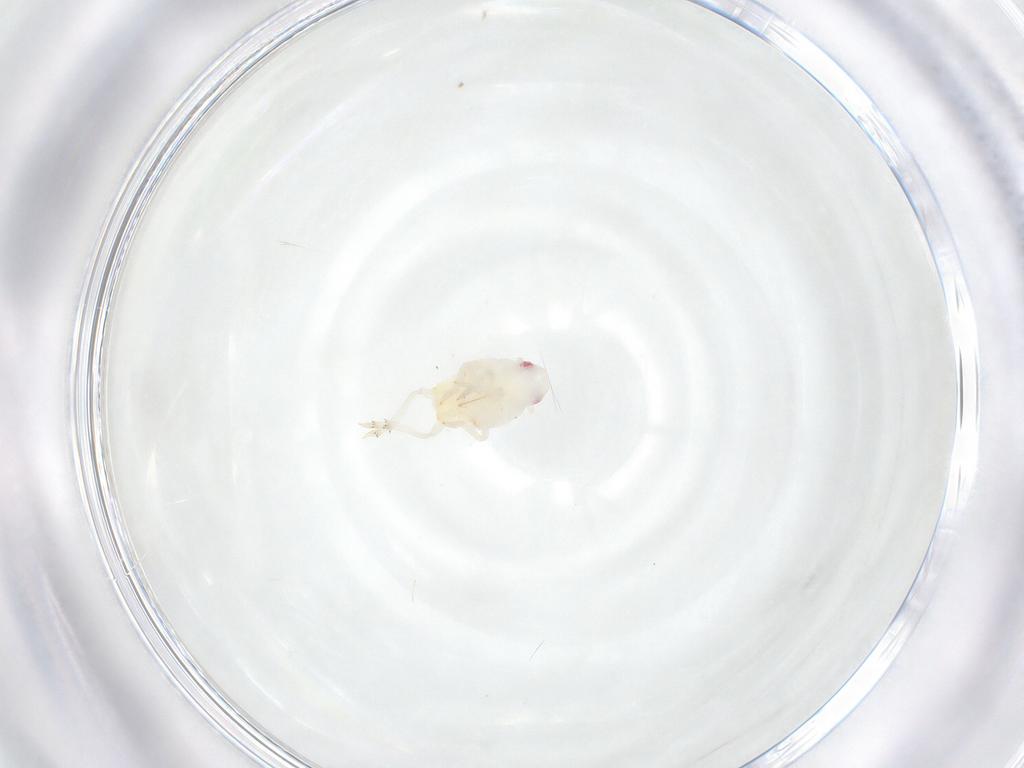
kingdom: Animalia
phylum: Arthropoda
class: Insecta
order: Hemiptera
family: Flatidae
